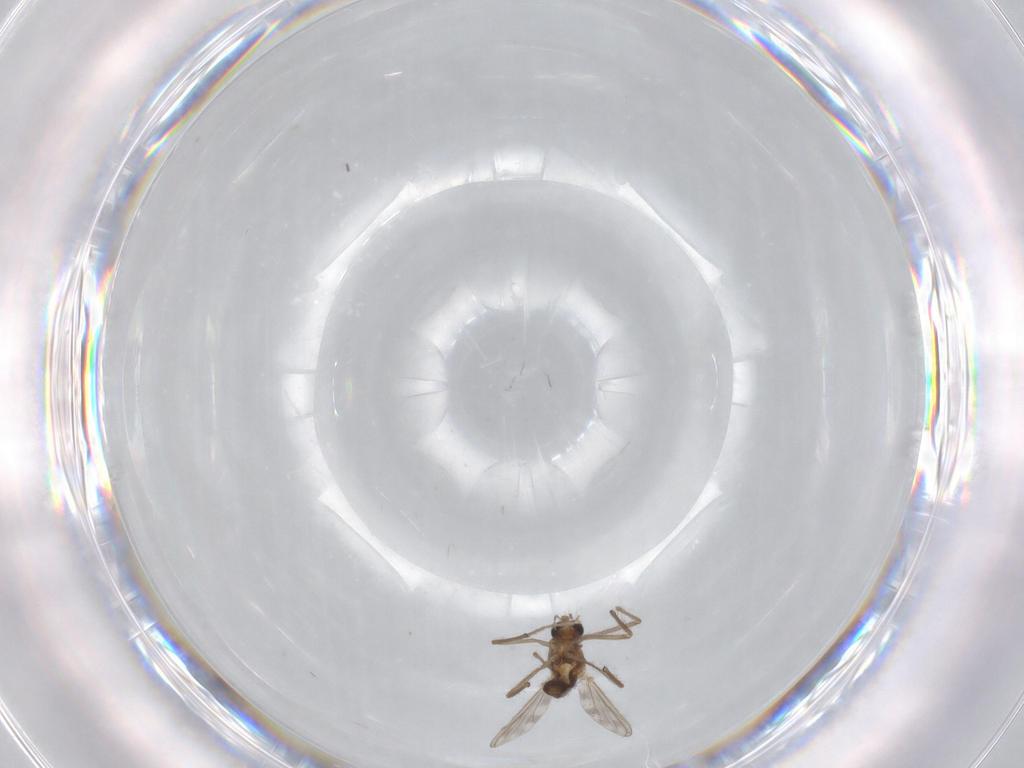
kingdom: Animalia
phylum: Arthropoda
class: Insecta
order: Diptera
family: Chironomidae
